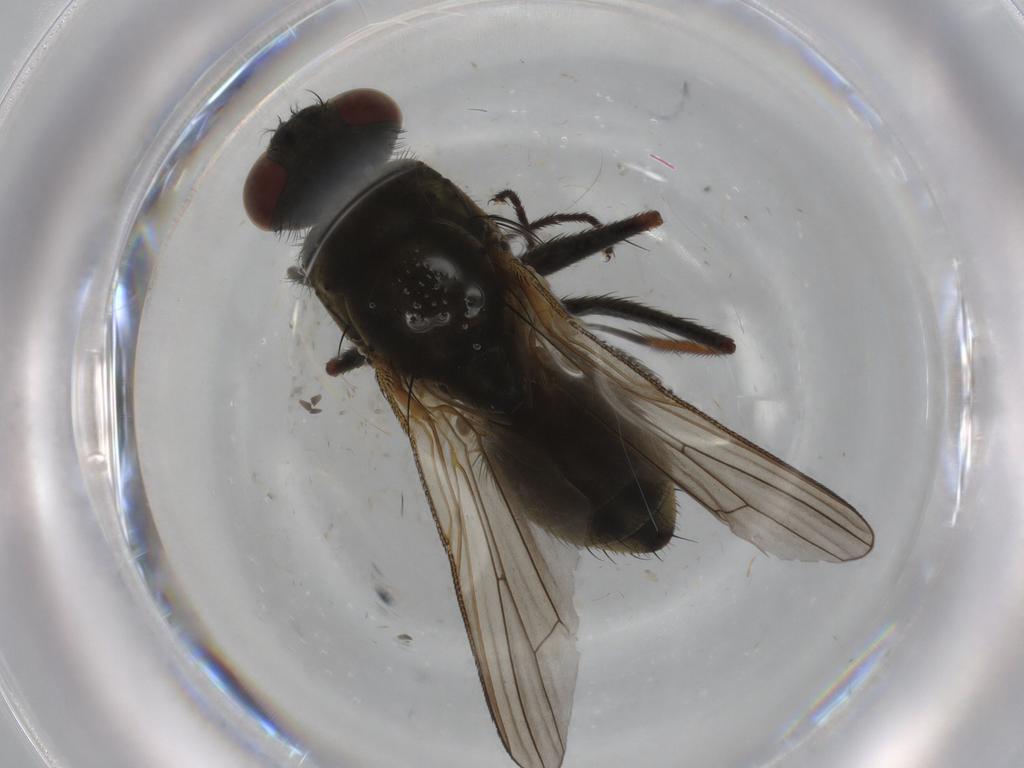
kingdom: Animalia
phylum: Arthropoda
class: Insecta
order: Diptera
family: Muscidae
